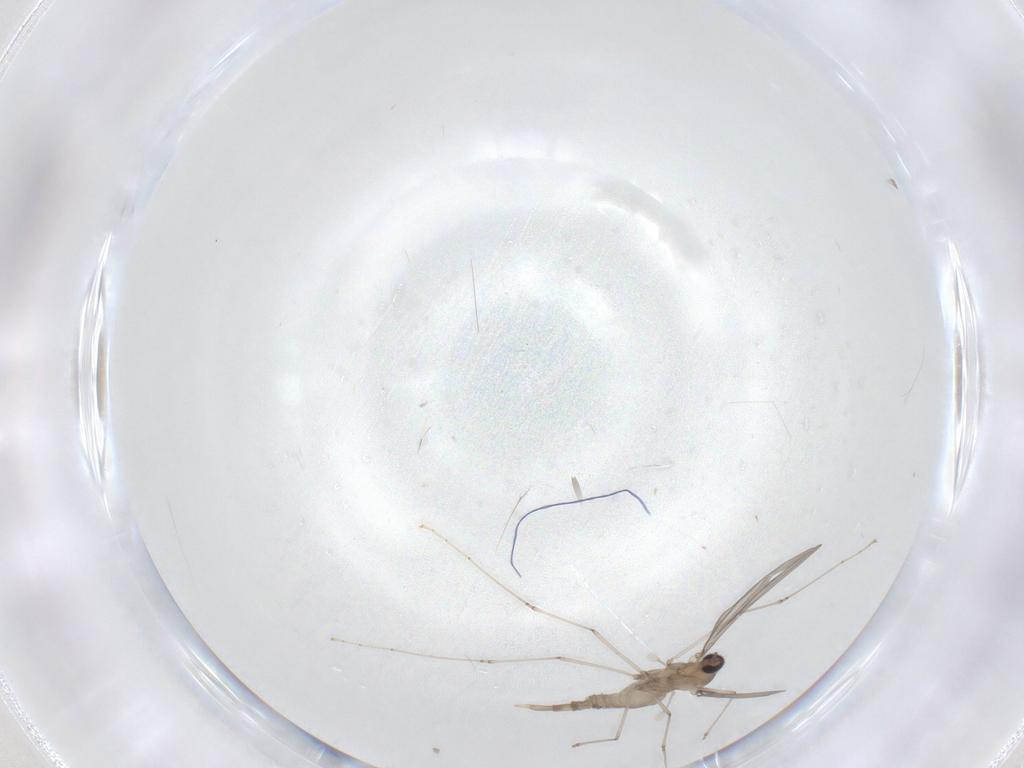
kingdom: Animalia
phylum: Arthropoda
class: Insecta
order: Diptera
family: Cecidomyiidae
